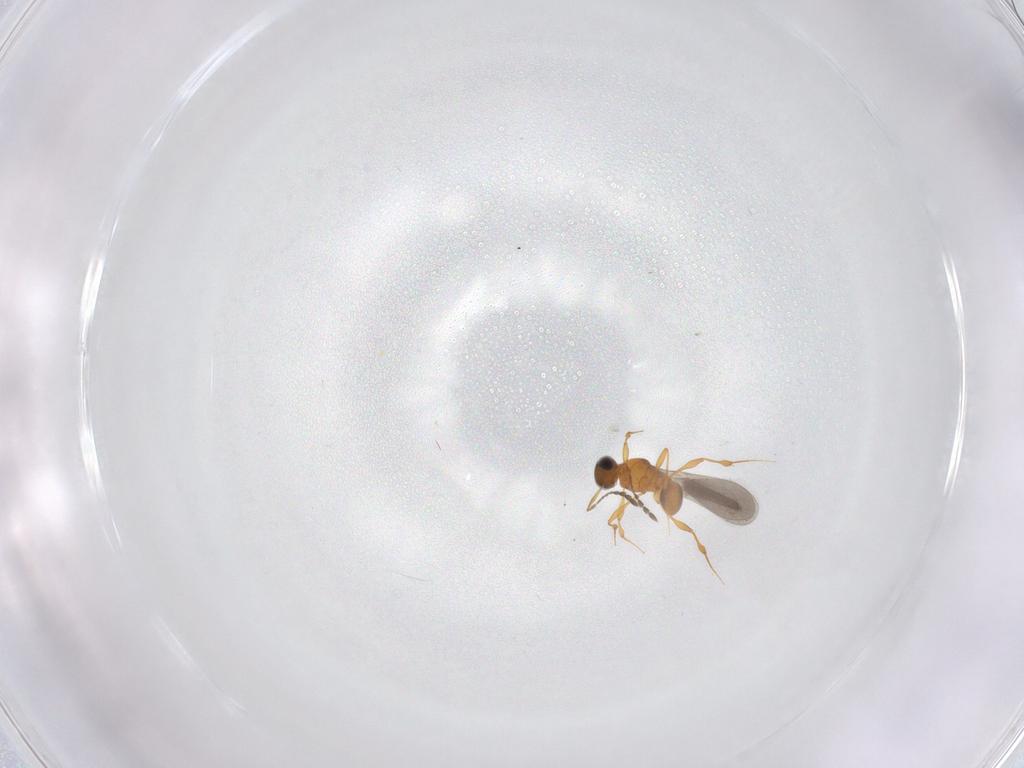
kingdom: Animalia
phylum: Arthropoda
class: Insecta
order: Hymenoptera
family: Platygastridae
